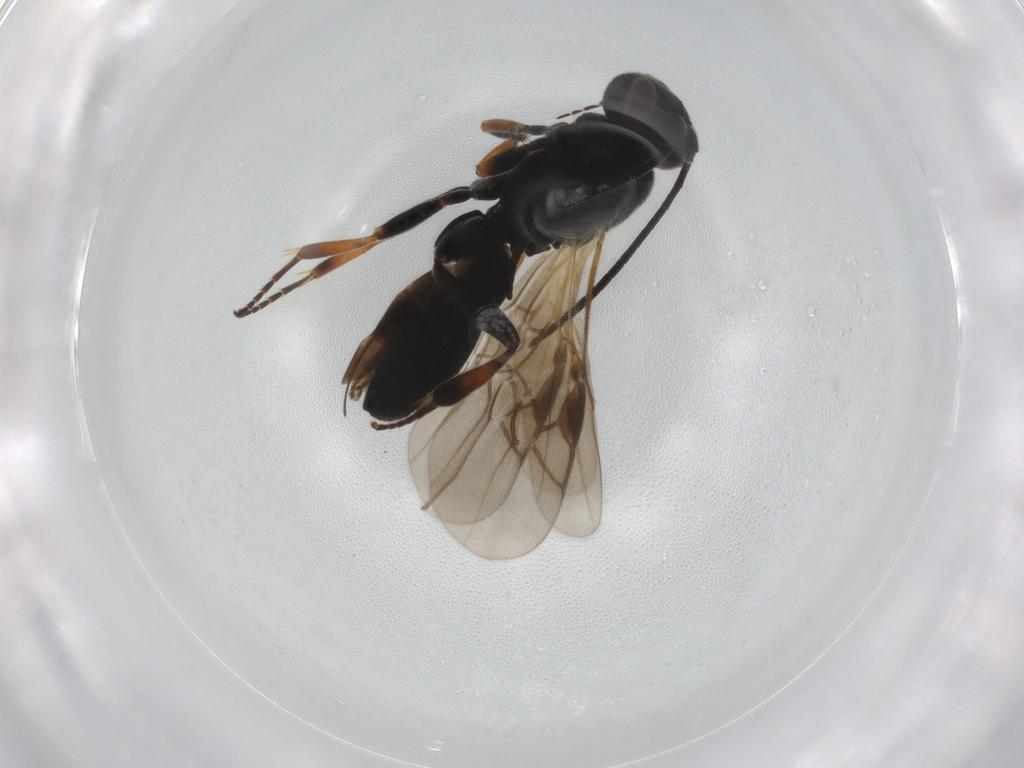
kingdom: Animalia
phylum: Arthropoda
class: Insecta
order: Hymenoptera
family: Braconidae
